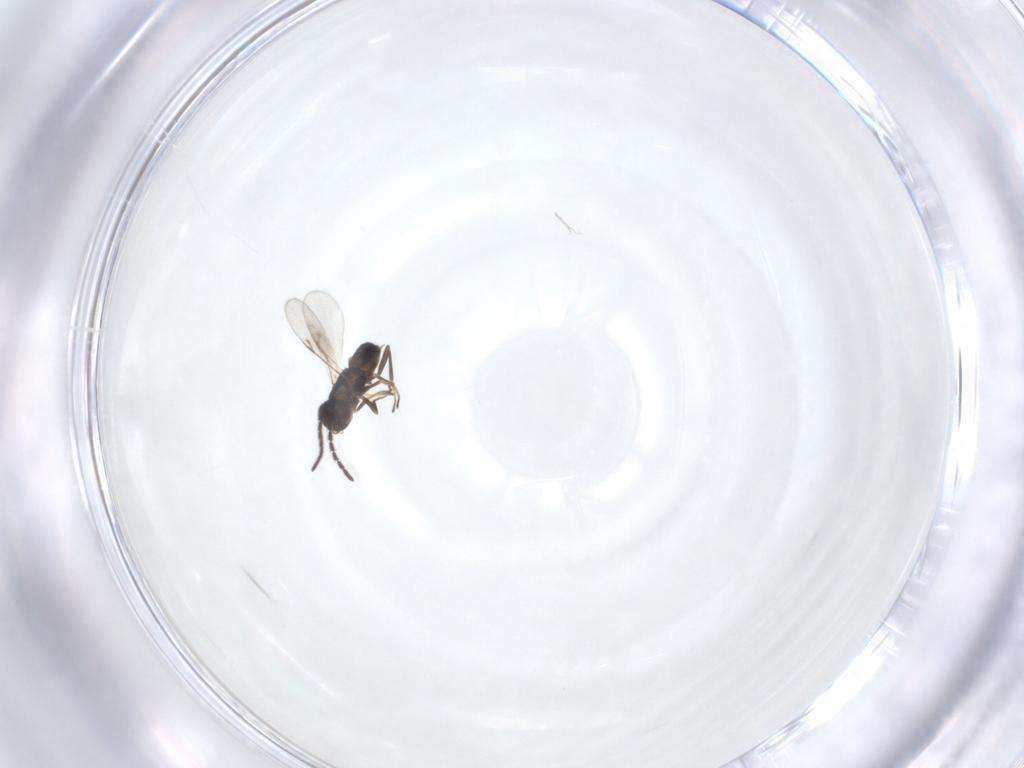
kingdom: Animalia
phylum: Arthropoda
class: Insecta
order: Hymenoptera
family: Encyrtidae
